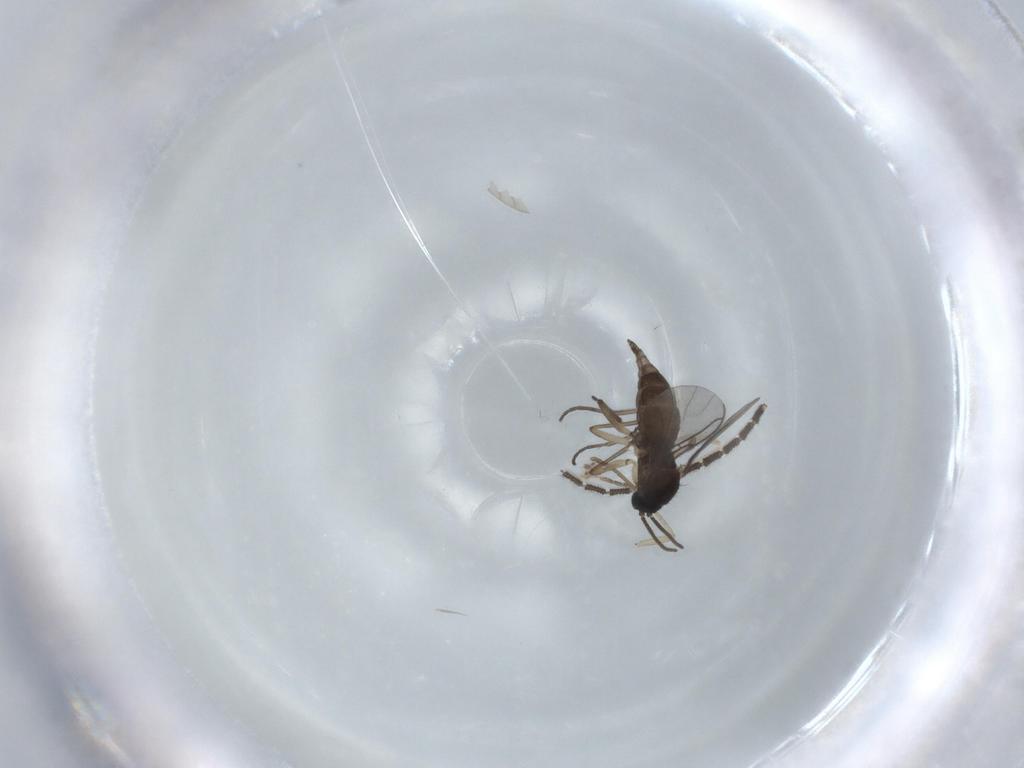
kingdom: Animalia
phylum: Arthropoda
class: Insecta
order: Diptera
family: Sciaridae
